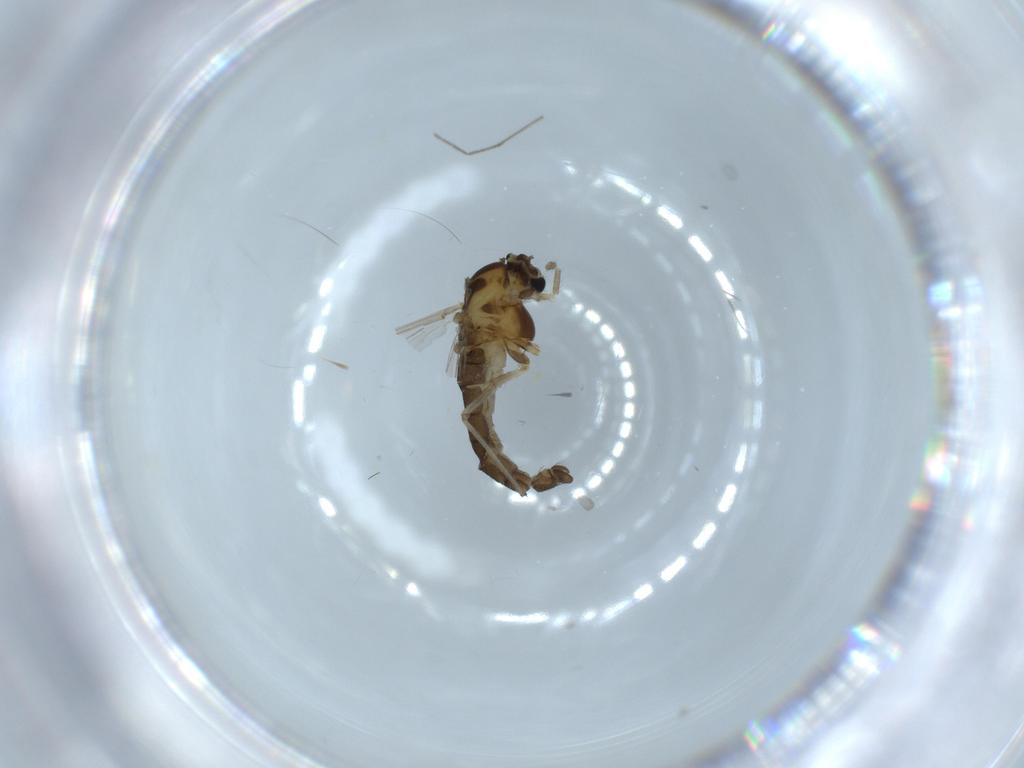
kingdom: Animalia
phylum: Arthropoda
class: Insecta
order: Diptera
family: Chironomidae
